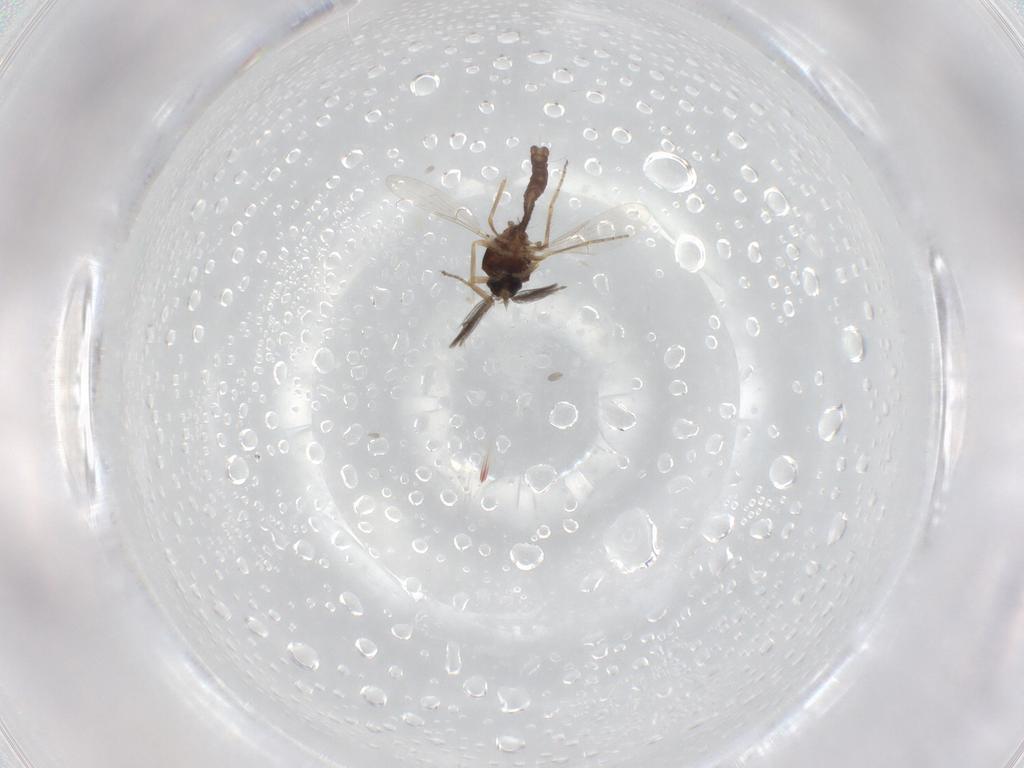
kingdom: Animalia
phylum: Arthropoda
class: Insecta
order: Diptera
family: Ceratopogonidae
